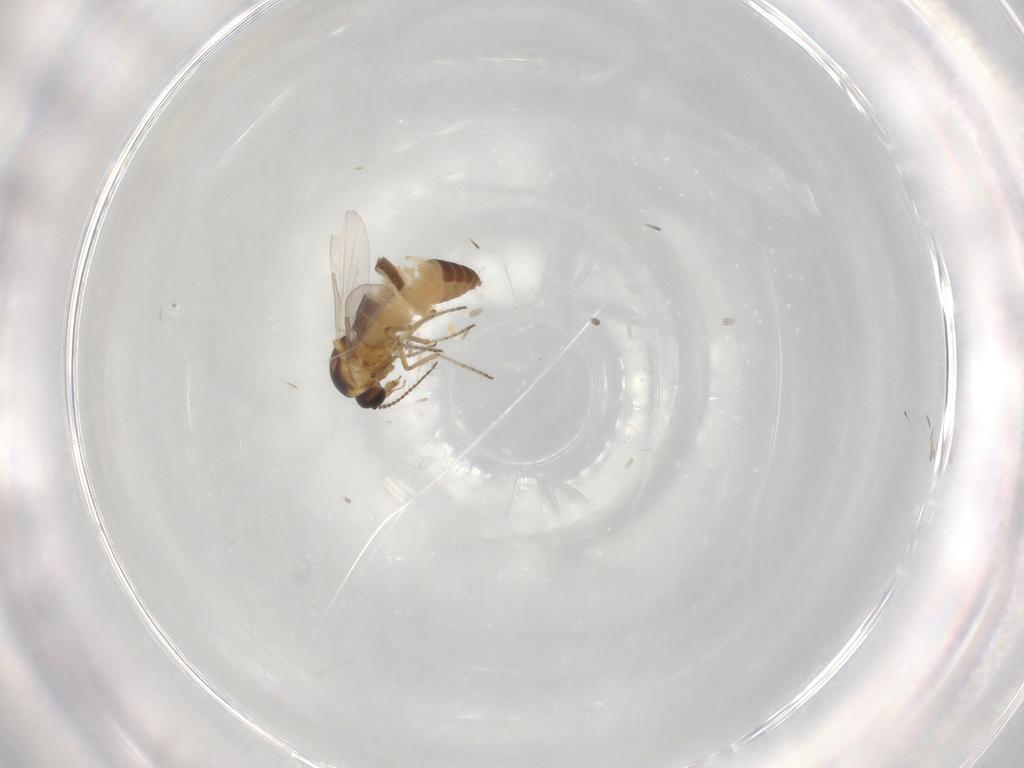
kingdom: Animalia
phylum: Arthropoda
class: Insecta
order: Diptera
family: Ceratopogonidae
